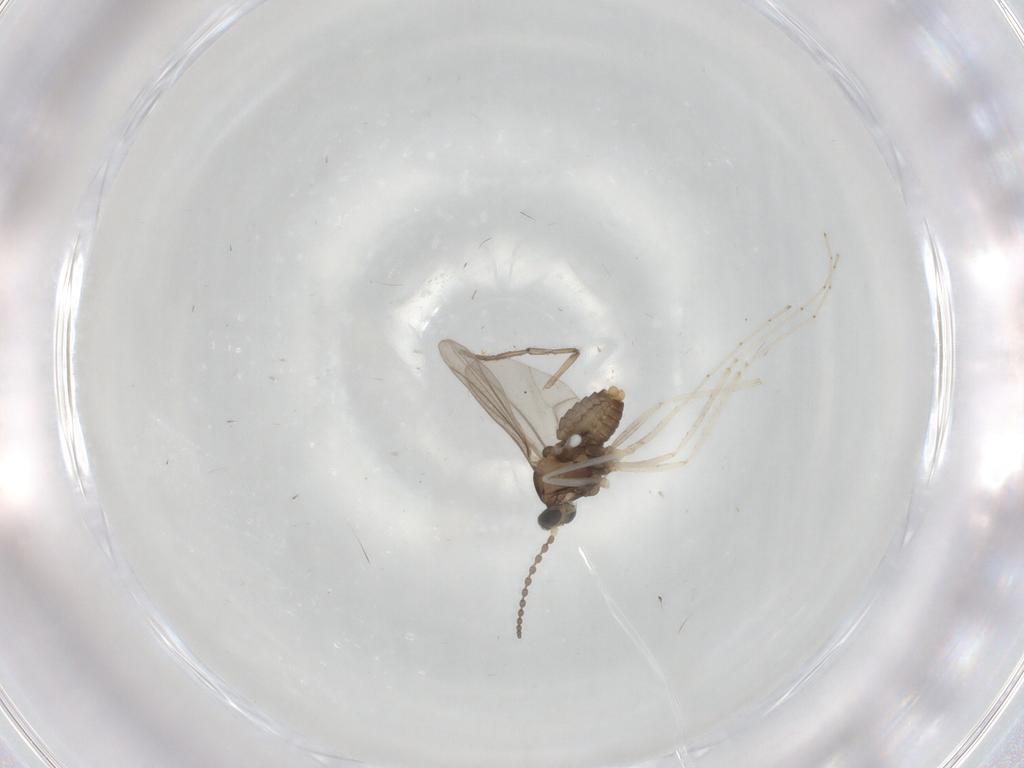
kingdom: Animalia
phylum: Arthropoda
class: Insecta
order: Diptera
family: Cecidomyiidae
